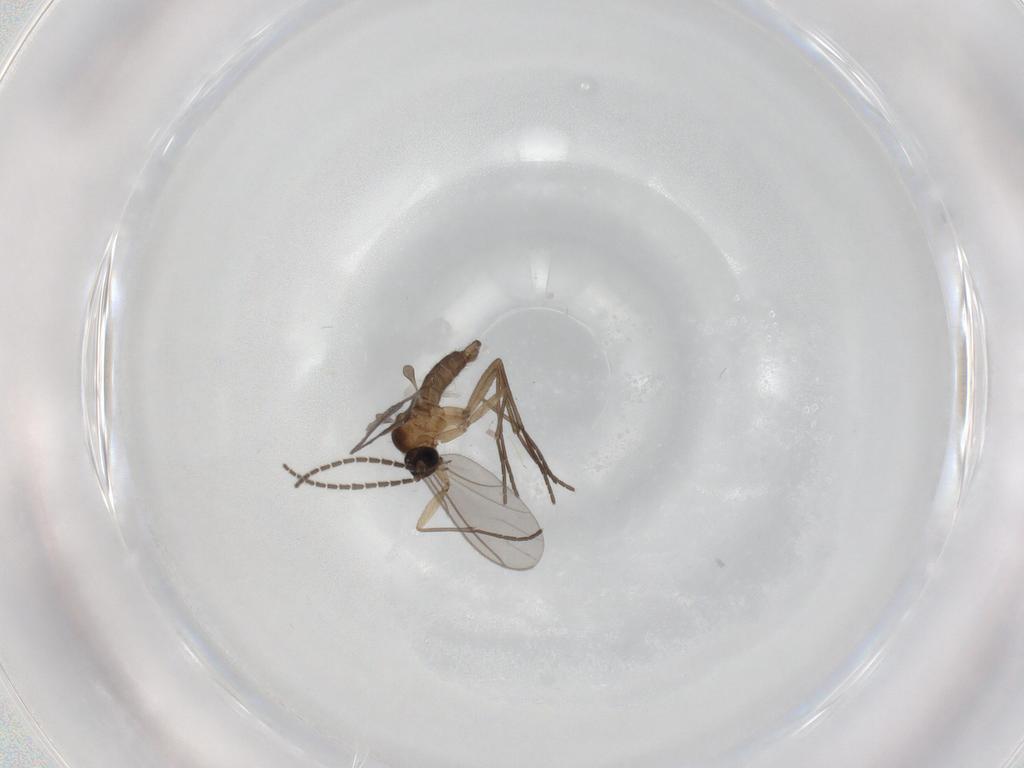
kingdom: Animalia
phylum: Arthropoda
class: Insecta
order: Diptera
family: Sciaridae
